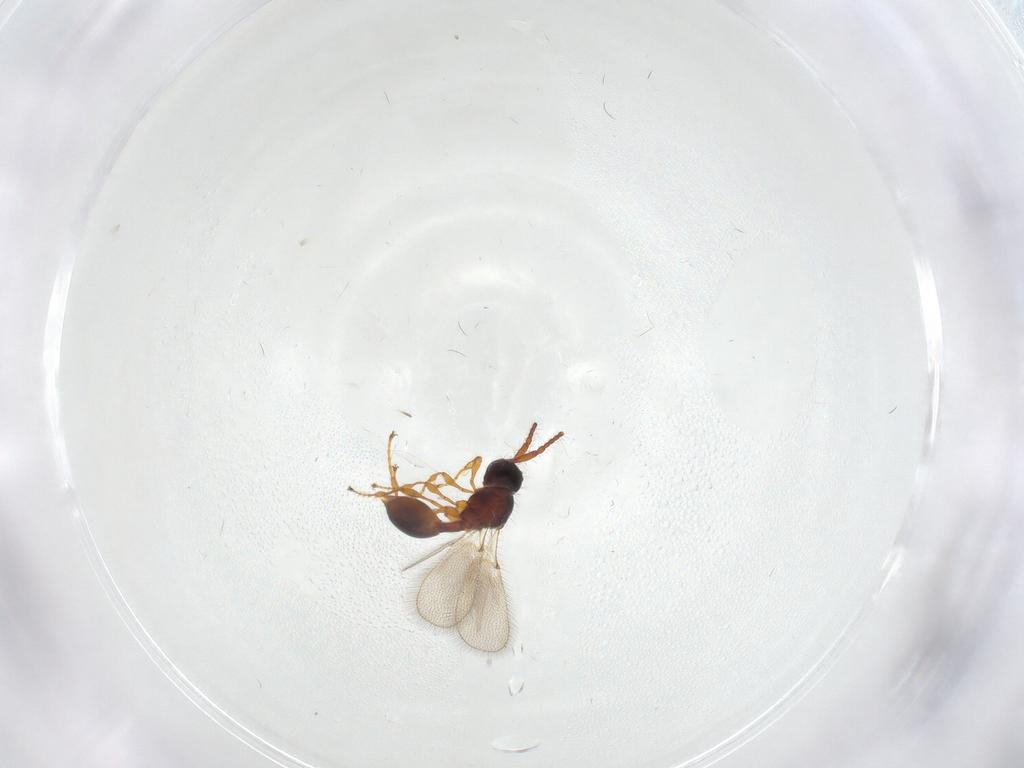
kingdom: Animalia
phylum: Arthropoda
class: Insecta
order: Hymenoptera
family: Diapriidae
